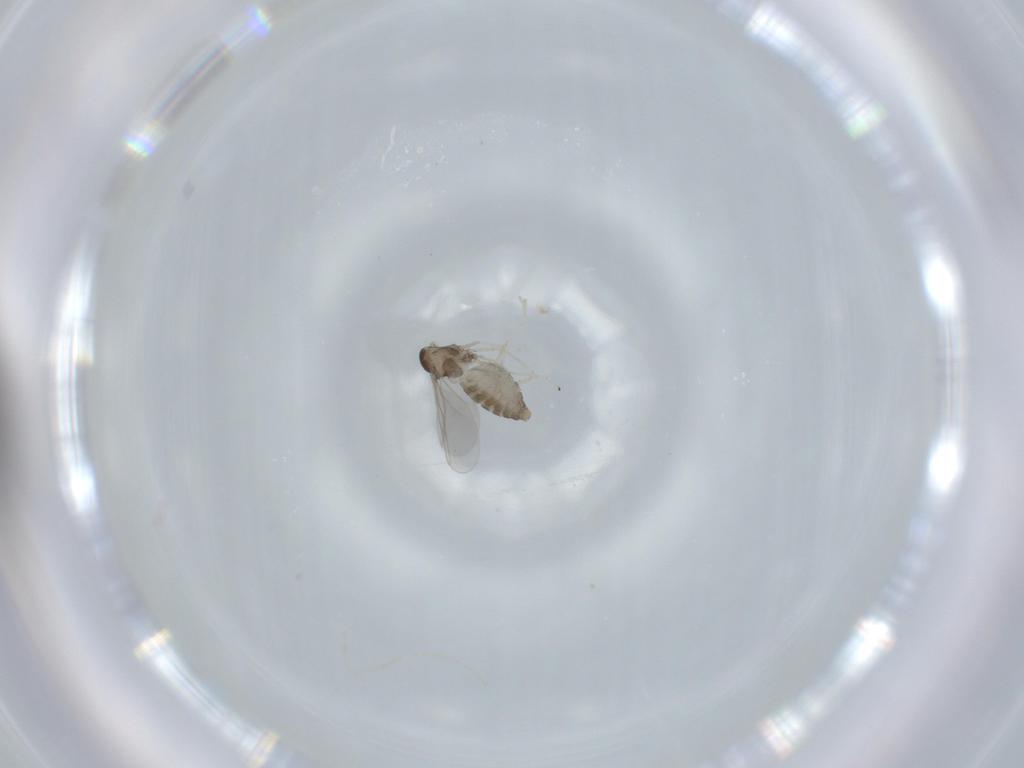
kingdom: Animalia
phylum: Arthropoda
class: Insecta
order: Diptera
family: Cecidomyiidae
